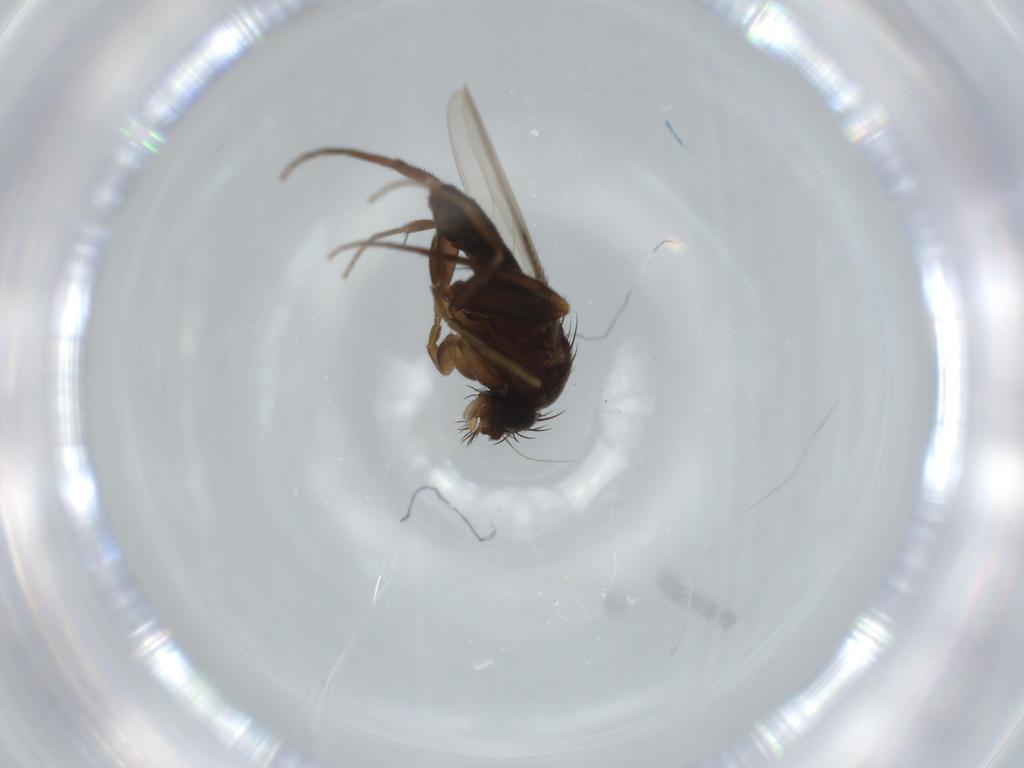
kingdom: Animalia
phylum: Arthropoda
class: Insecta
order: Diptera
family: Phoridae
